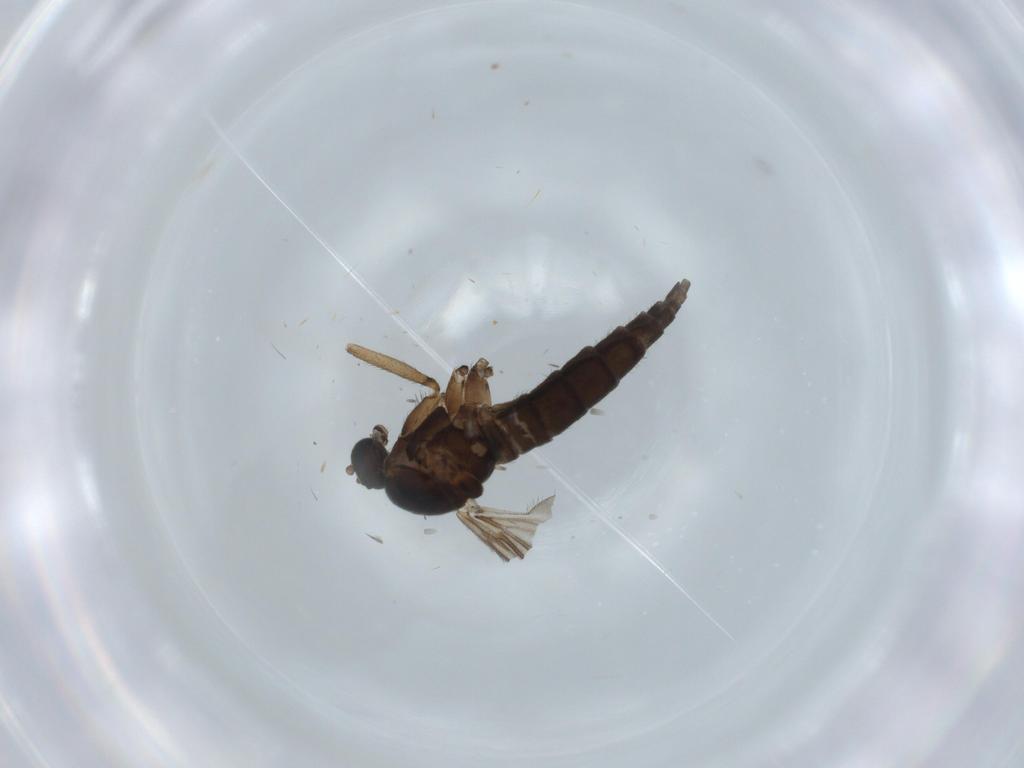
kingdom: Animalia
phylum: Arthropoda
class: Insecta
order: Diptera
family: Sciaridae
